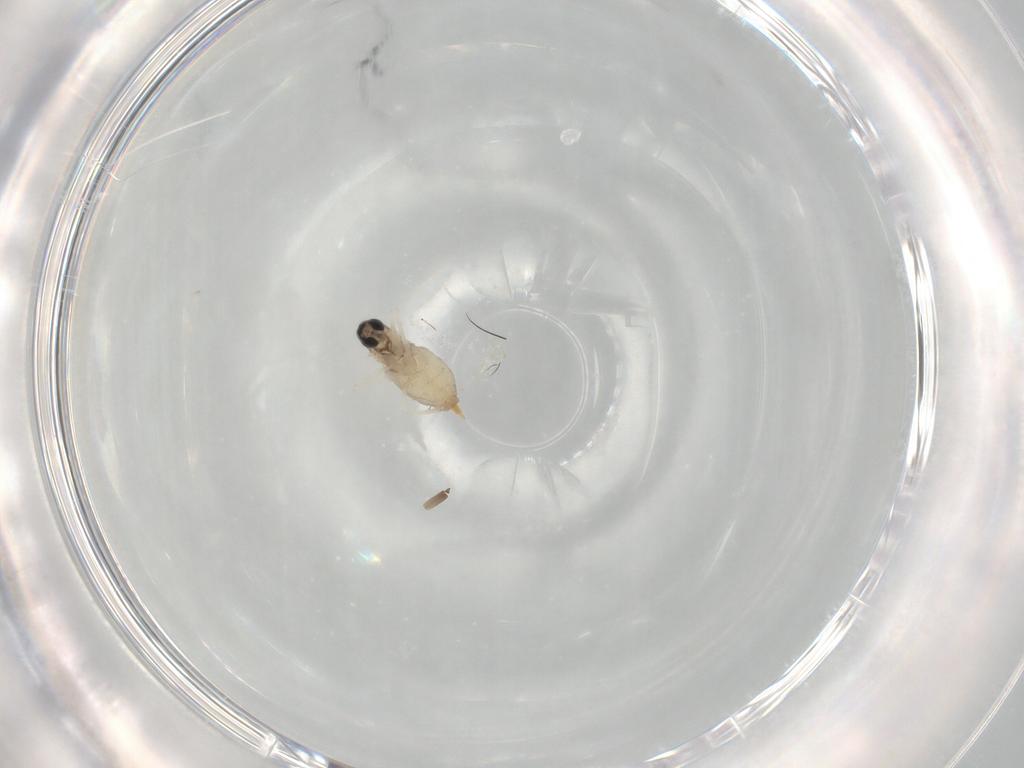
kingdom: Animalia
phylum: Arthropoda
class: Insecta
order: Diptera
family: Cecidomyiidae
